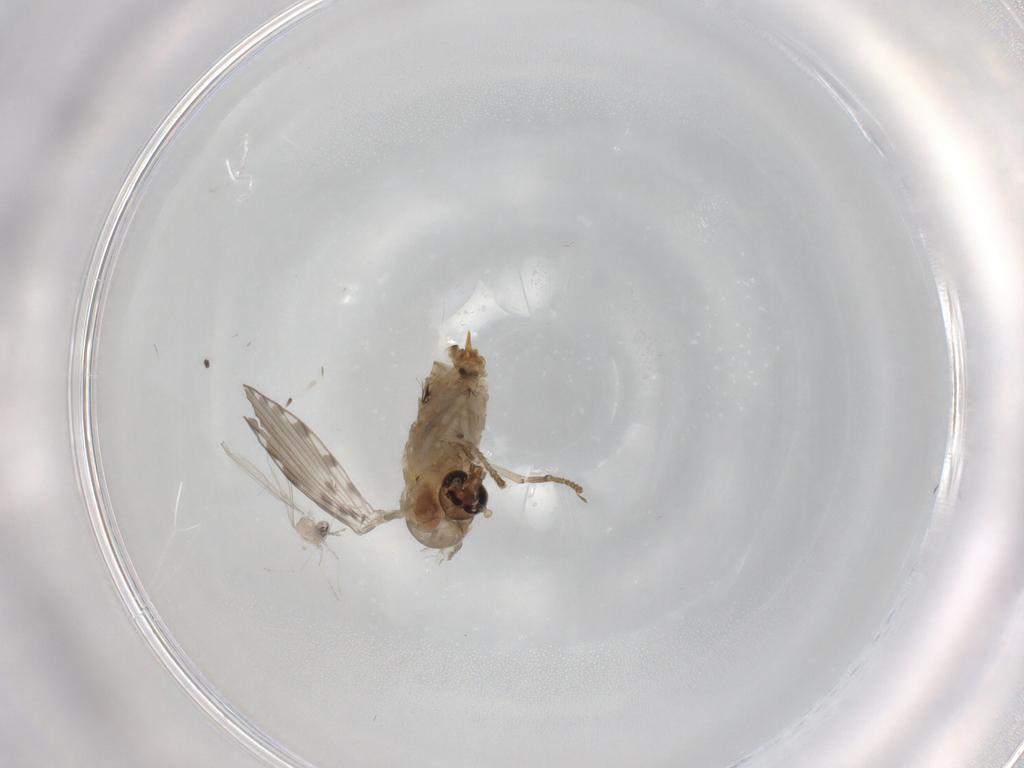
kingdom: Animalia
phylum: Arthropoda
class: Insecta
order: Diptera
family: Psychodidae
